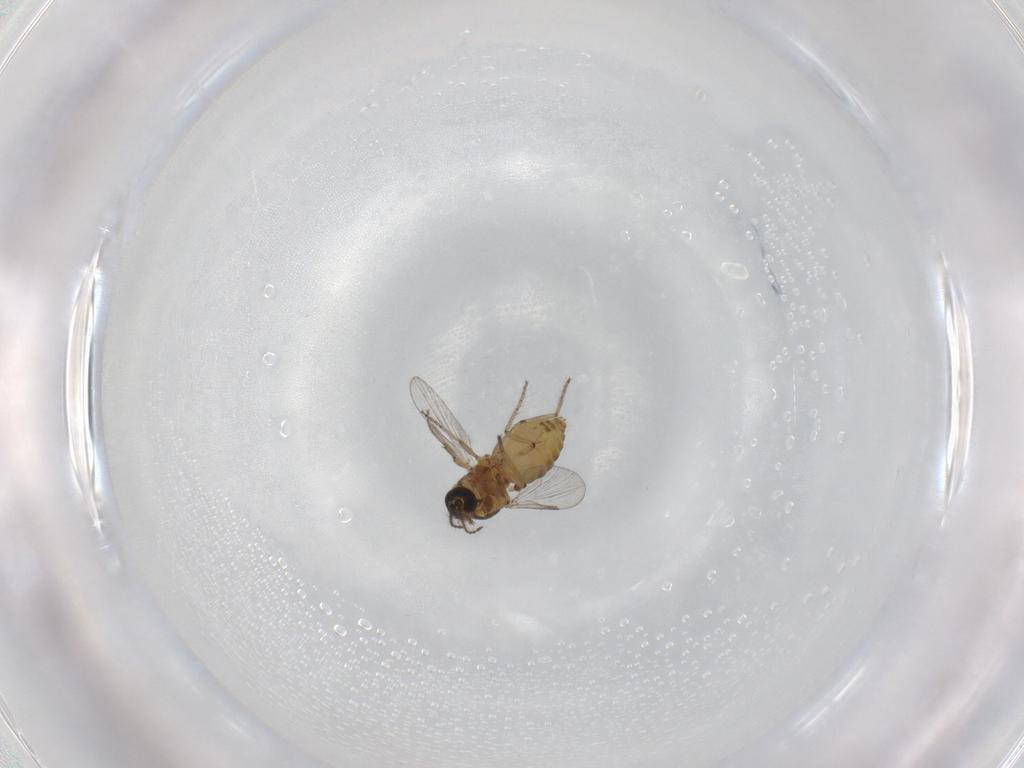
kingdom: Animalia
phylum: Arthropoda
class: Insecta
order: Diptera
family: Ceratopogonidae
